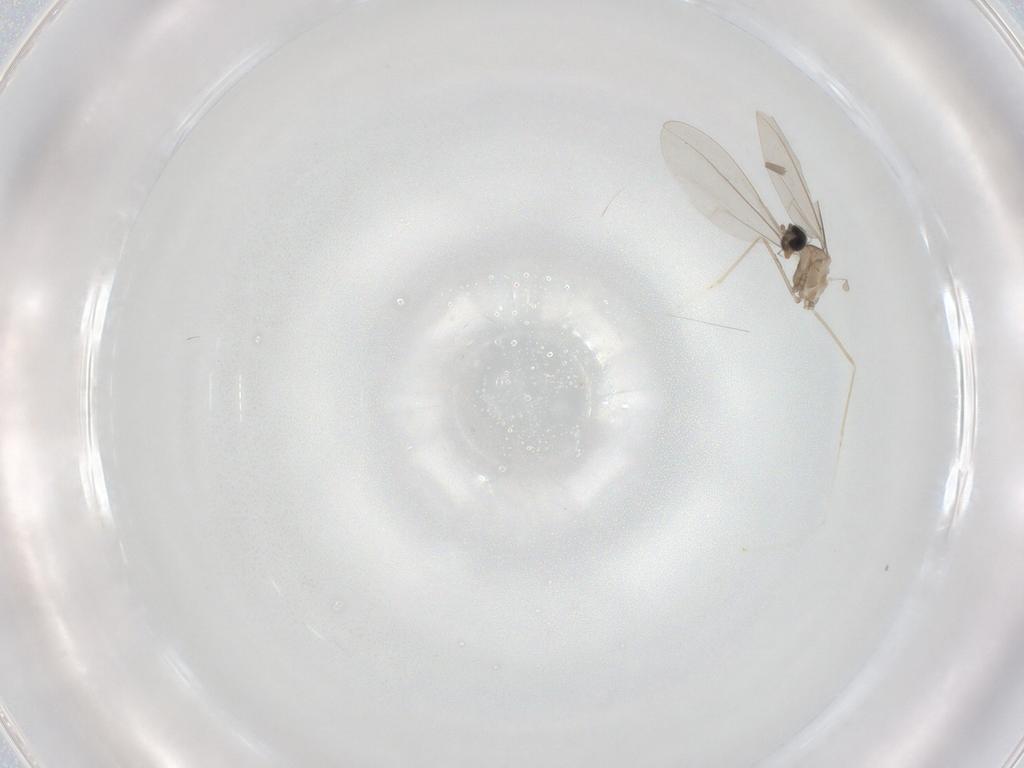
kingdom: Animalia
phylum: Arthropoda
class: Insecta
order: Diptera
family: Sciaridae
